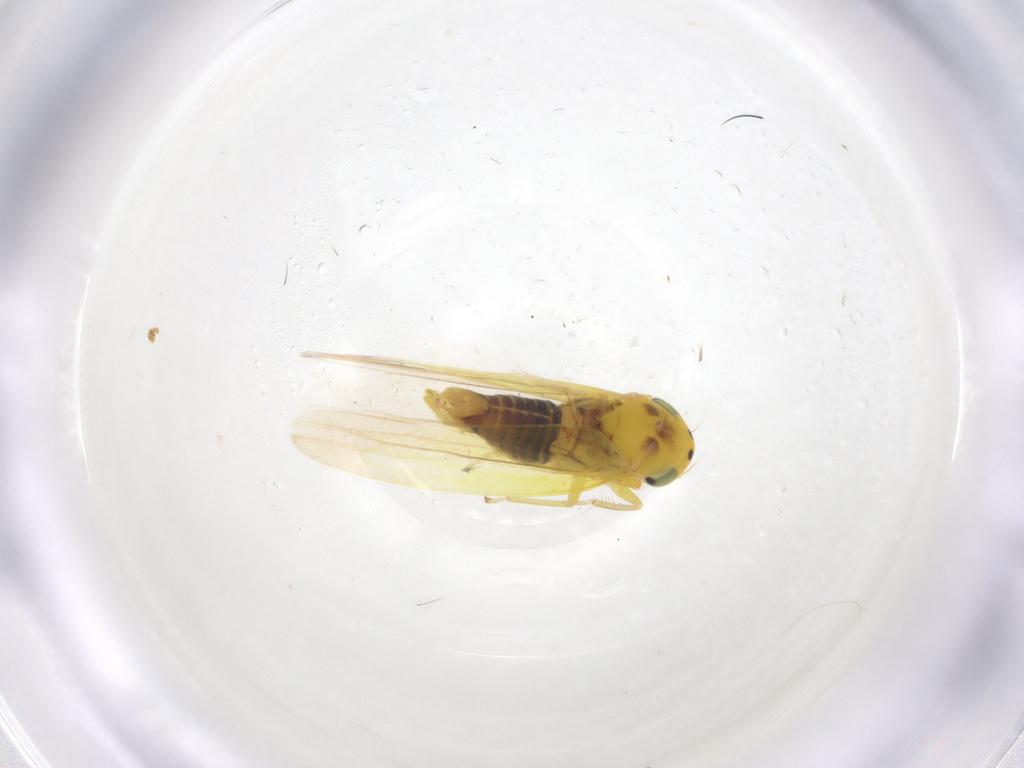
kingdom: Animalia
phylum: Arthropoda
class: Insecta
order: Hemiptera
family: Cicadellidae
